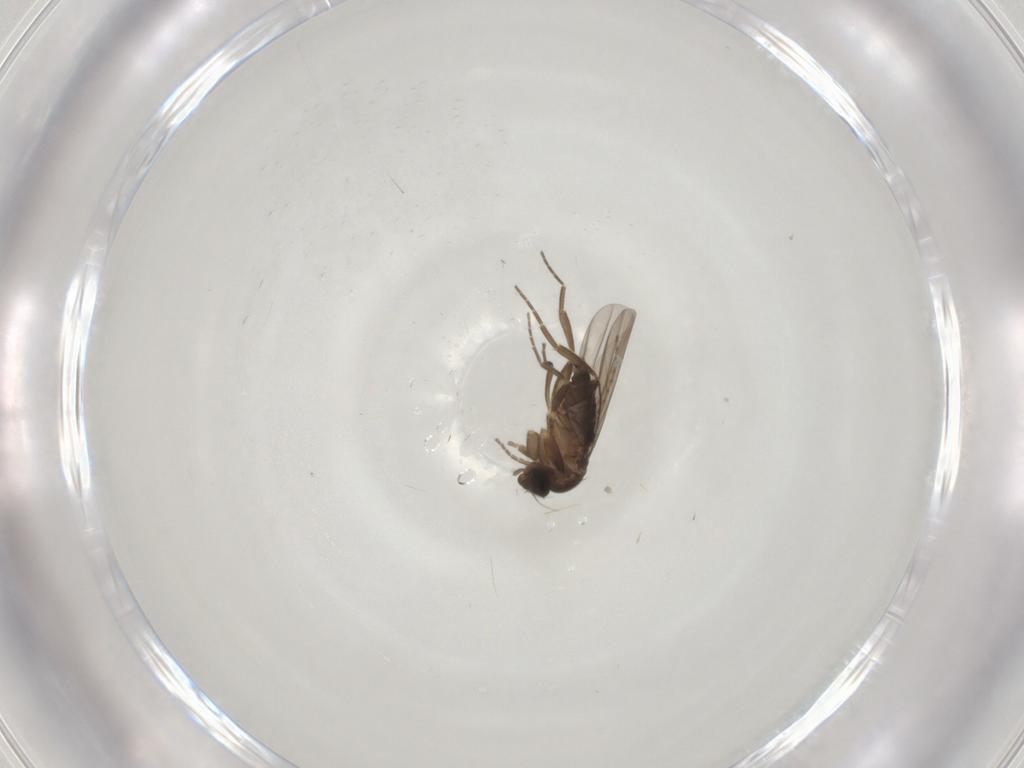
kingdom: Animalia
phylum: Arthropoda
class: Insecta
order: Diptera
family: Cecidomyiidae
